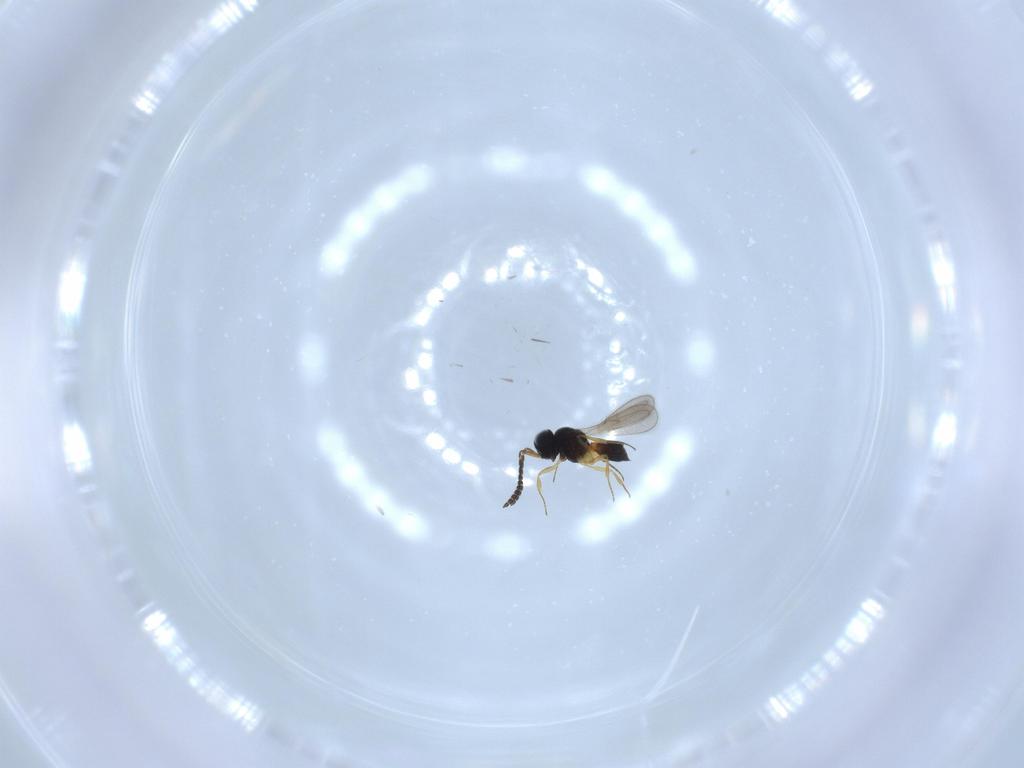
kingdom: Animalia
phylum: Arthropoda
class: Insecta
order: Hymenoptera
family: Scelionidae
